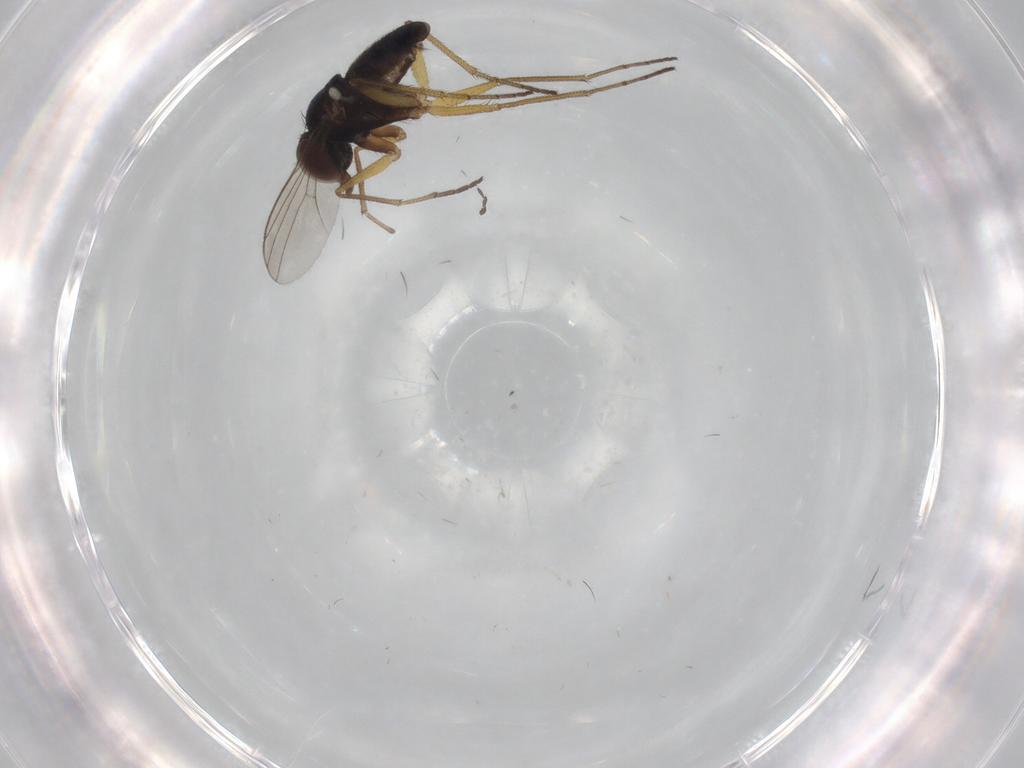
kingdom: Animalia
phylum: Arthropoda
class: Insecta
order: Diptera
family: Dolichopodidae
